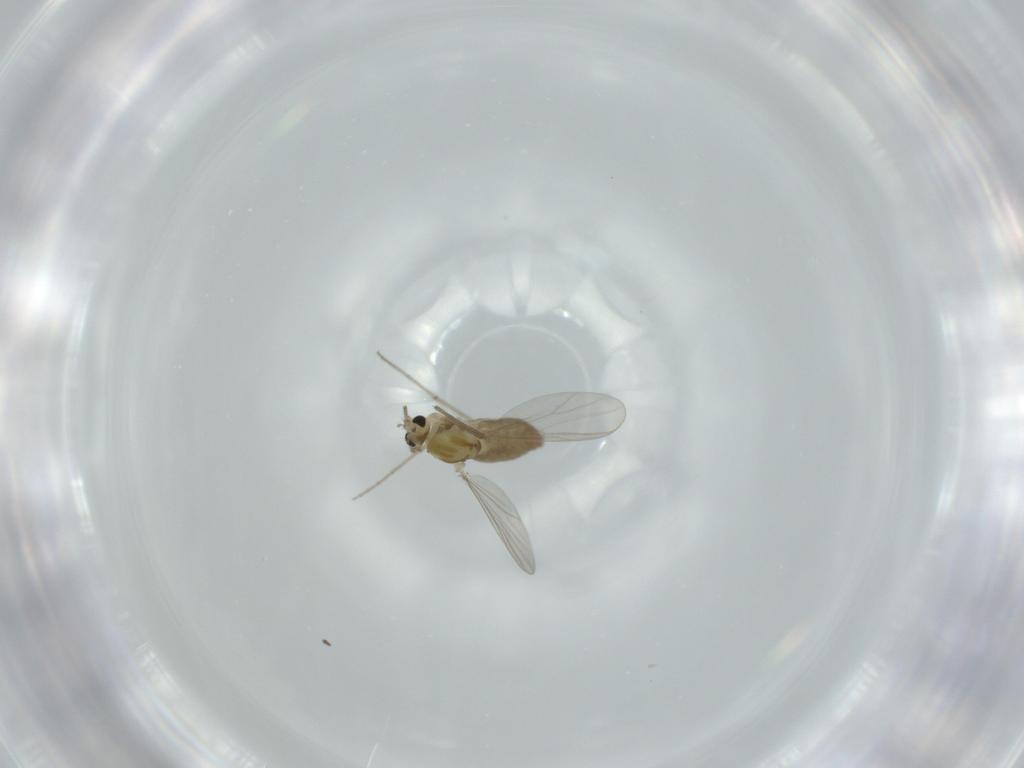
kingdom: Animalia
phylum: Arthropoda
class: Insecta
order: Diptera
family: Chironomidae
